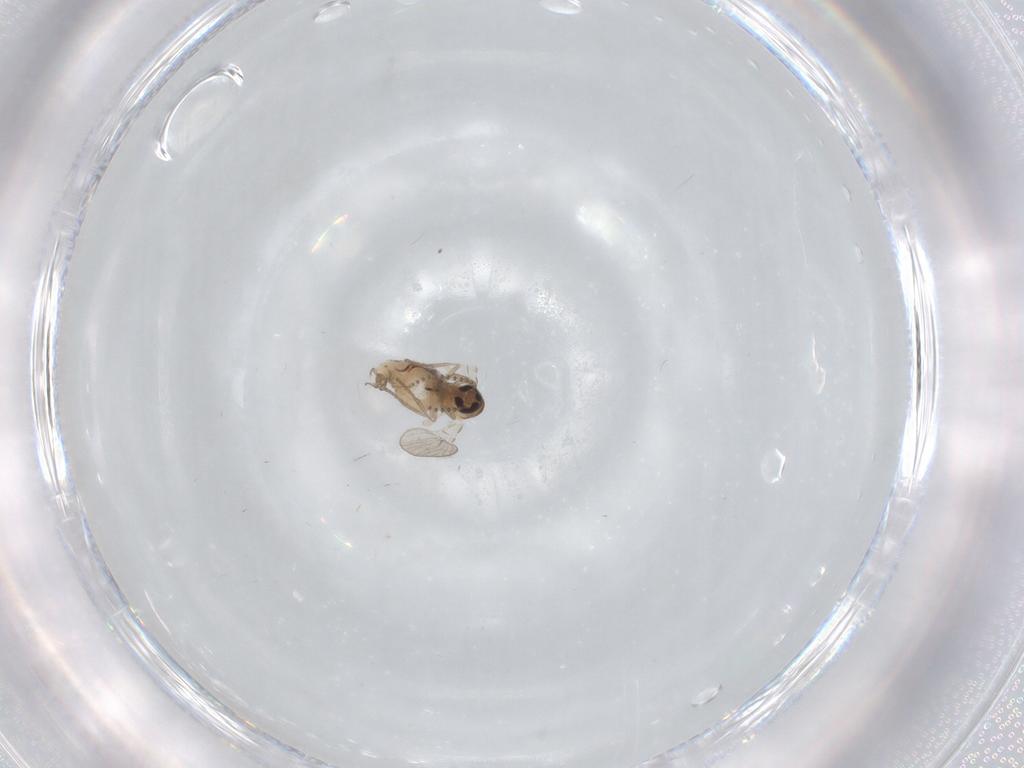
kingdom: Animalia
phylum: Arthropoda
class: Insecta
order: Diptera
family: Psychodidae
